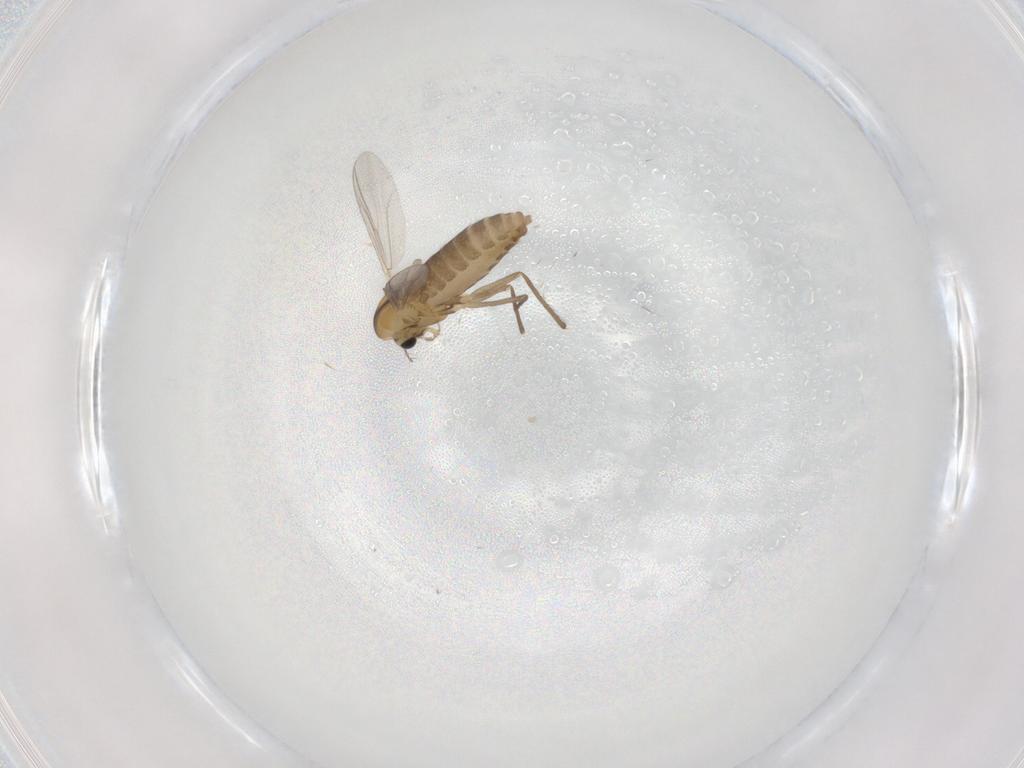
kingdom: Animalia
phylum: Arthropoda
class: Insecta
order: Diptera
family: Chironomidae
